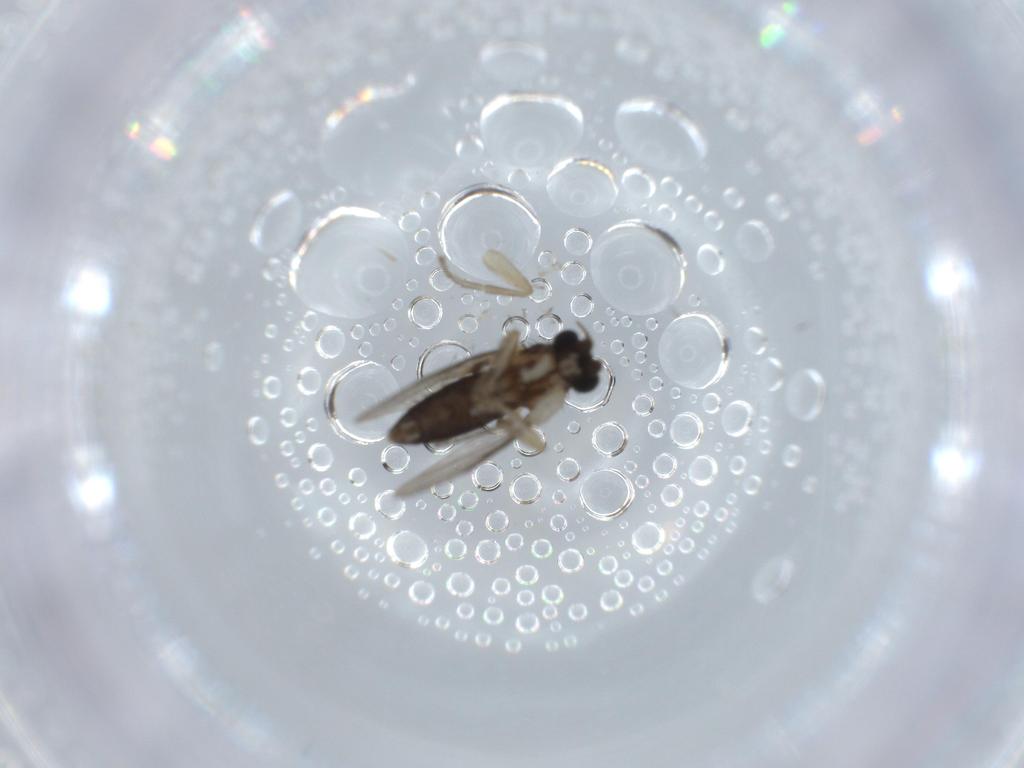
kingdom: Animalia
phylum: Arthropoda
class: Insecta
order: Diptera
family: Phoridae
